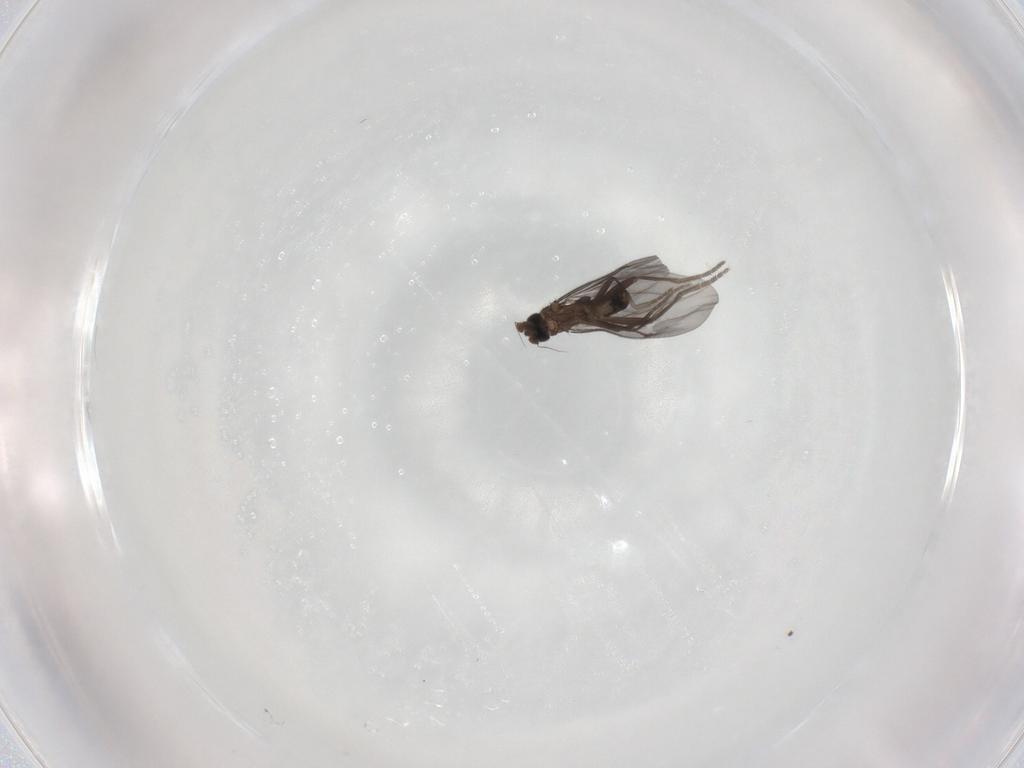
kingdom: Animalia
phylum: Arthropoda
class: Insecta
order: Diptera
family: Phoridae
